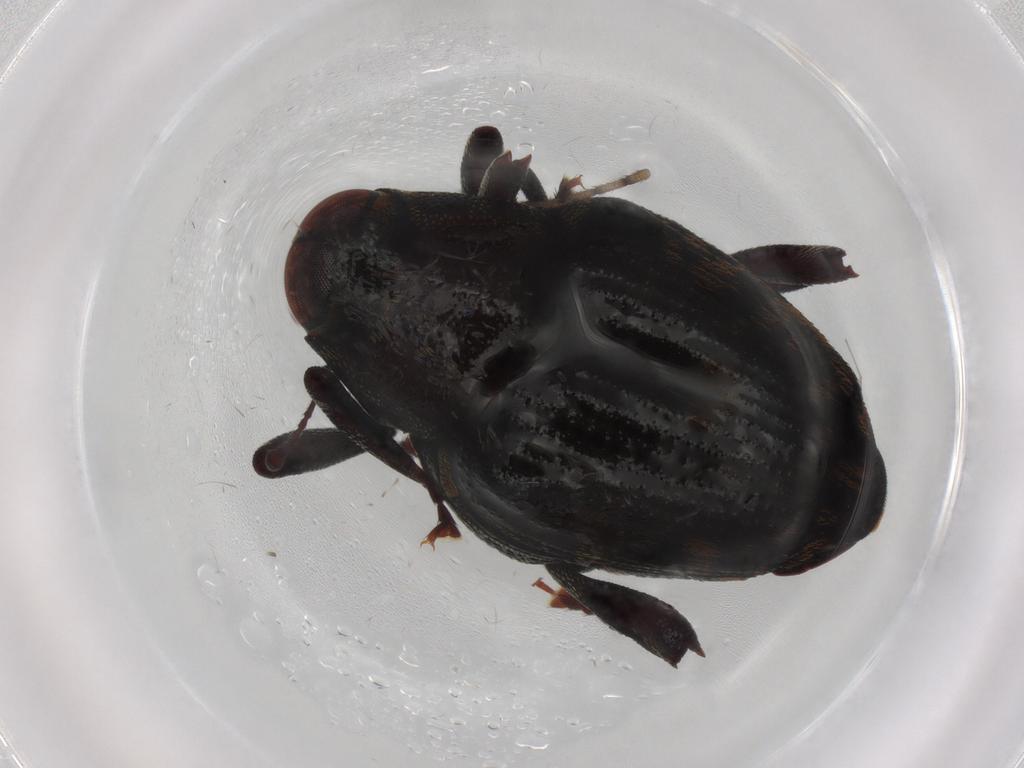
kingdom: Animalia
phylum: Arthropoda
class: Insecta
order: Coleoptera
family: Curculionidae
